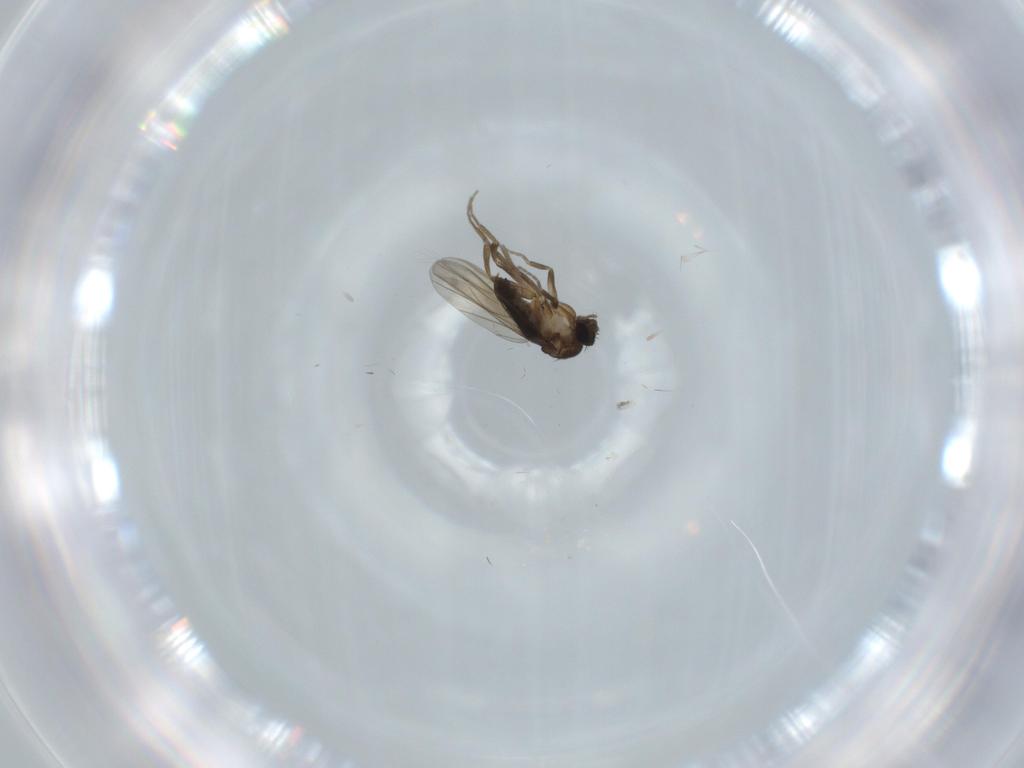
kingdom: Animalia
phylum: Arthropoda
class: Insecta
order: Diptera
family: Phoridae
